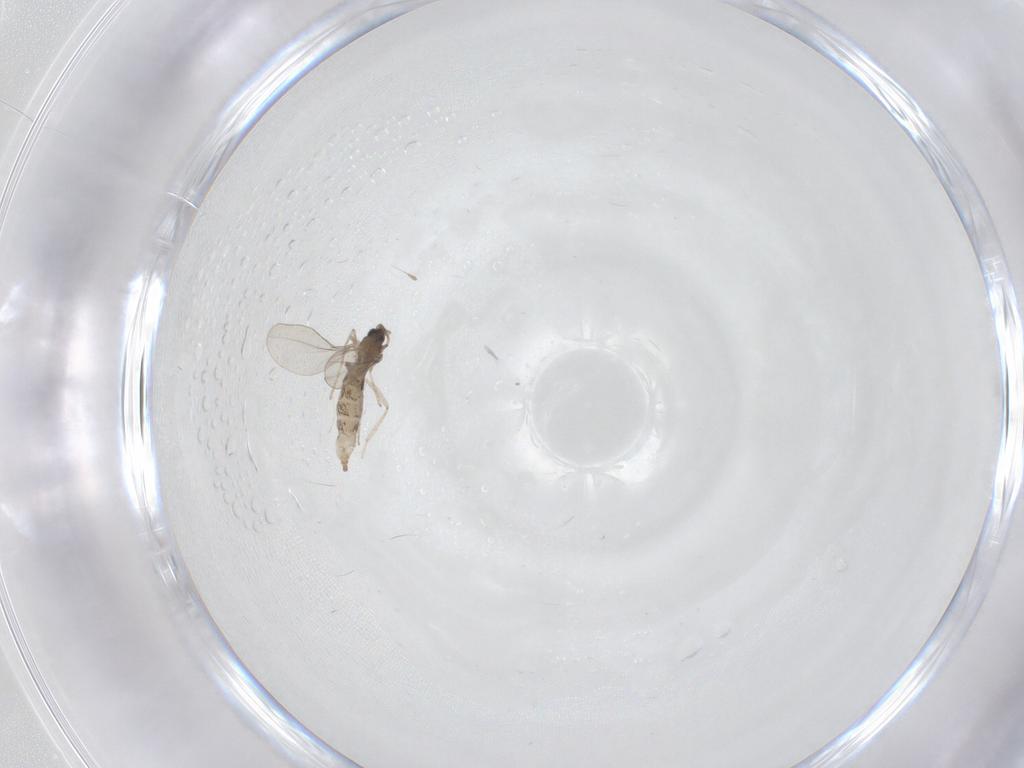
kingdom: Animalia
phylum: Arthropoda
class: Insecta
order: Diptera
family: Cecidomyiidae
